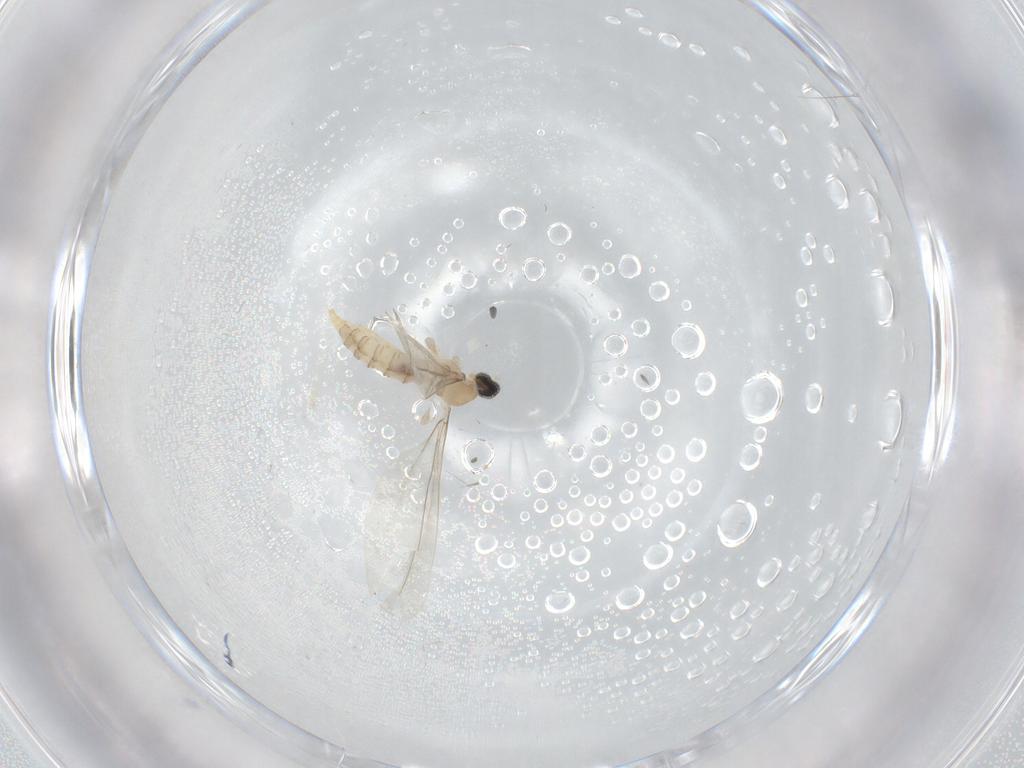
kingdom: Animalia
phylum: Arthropoda
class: Insecta
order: Diptera
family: Cecidomyiidae
